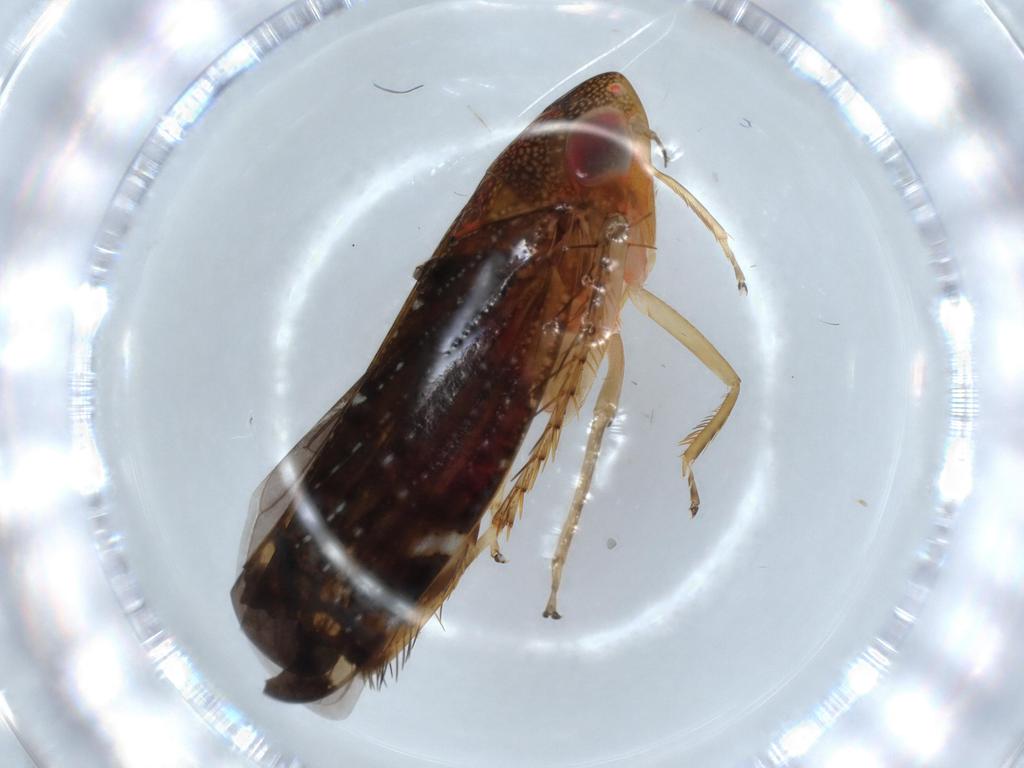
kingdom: Animalia
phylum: Arthropoda
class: Insecta
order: Hemiptera
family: Cicadellidae
